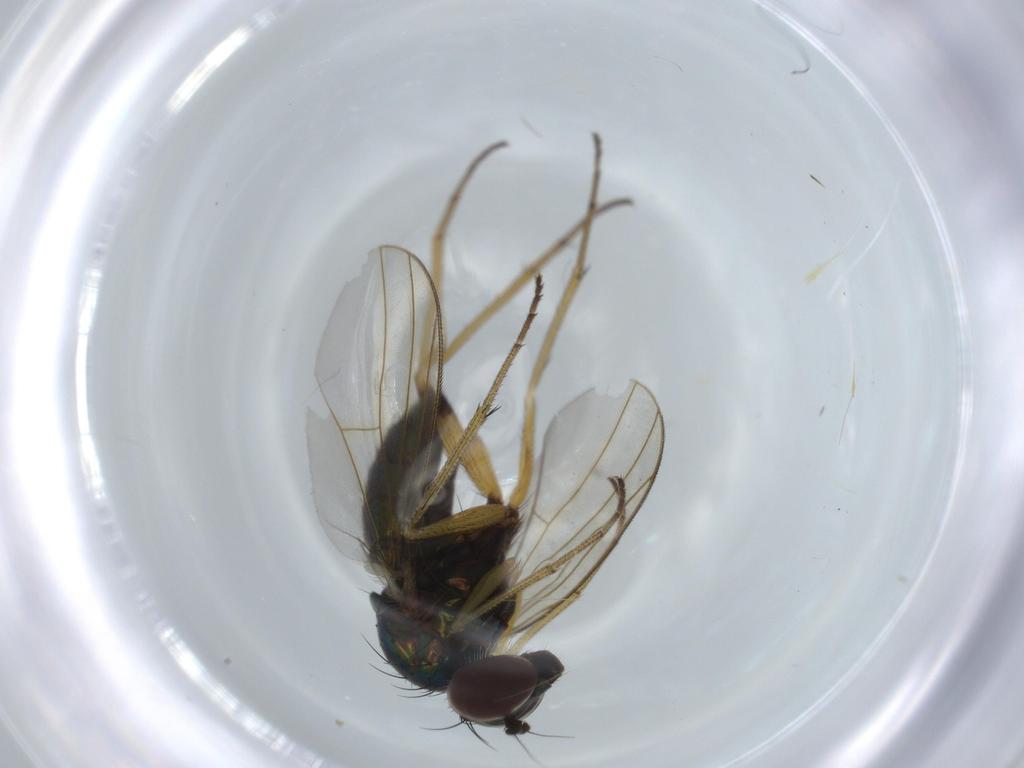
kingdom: Animalia
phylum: Arthropoda
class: Insecta
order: Diptera
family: Dolichopodidae
